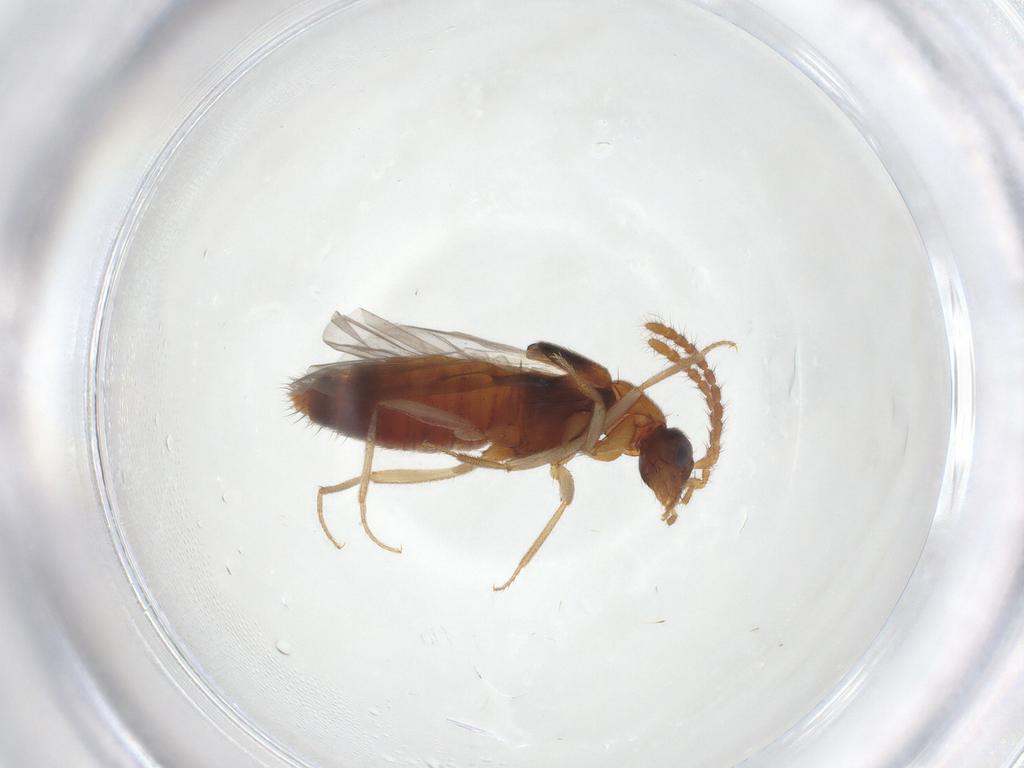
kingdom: Animalia
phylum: Arthropoda
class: Insecta
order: Coleoptera
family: Staphylinidae
